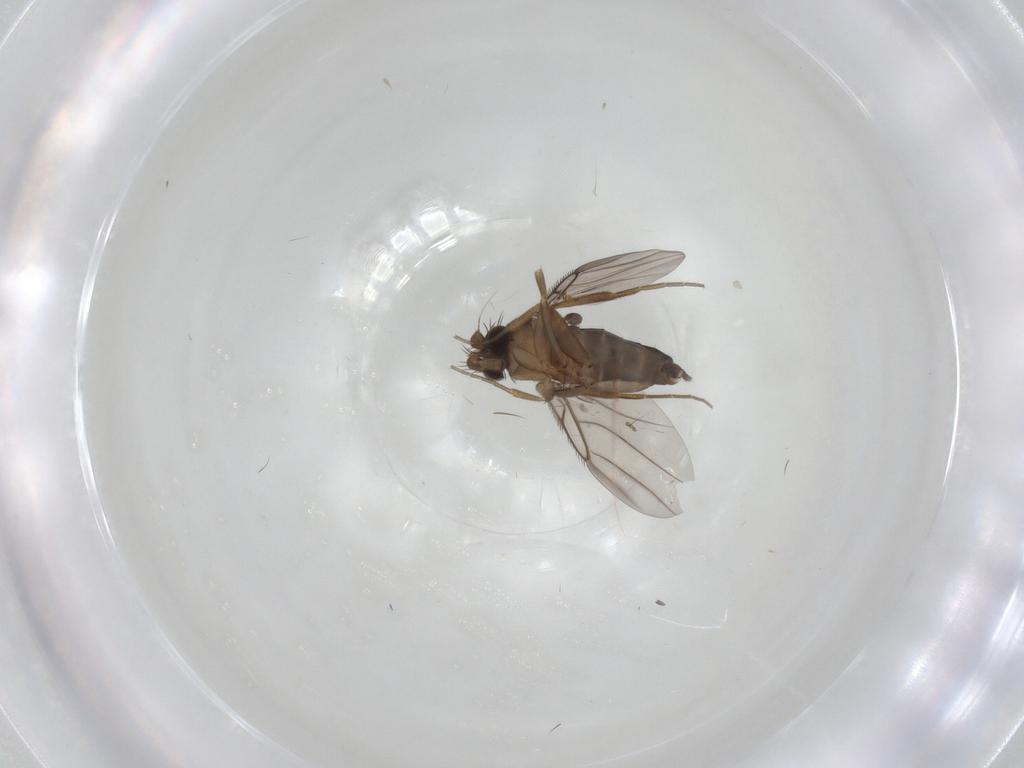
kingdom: Animalia
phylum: Arthropoda
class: Insecta
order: Diptera
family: Cecidomyiidae
